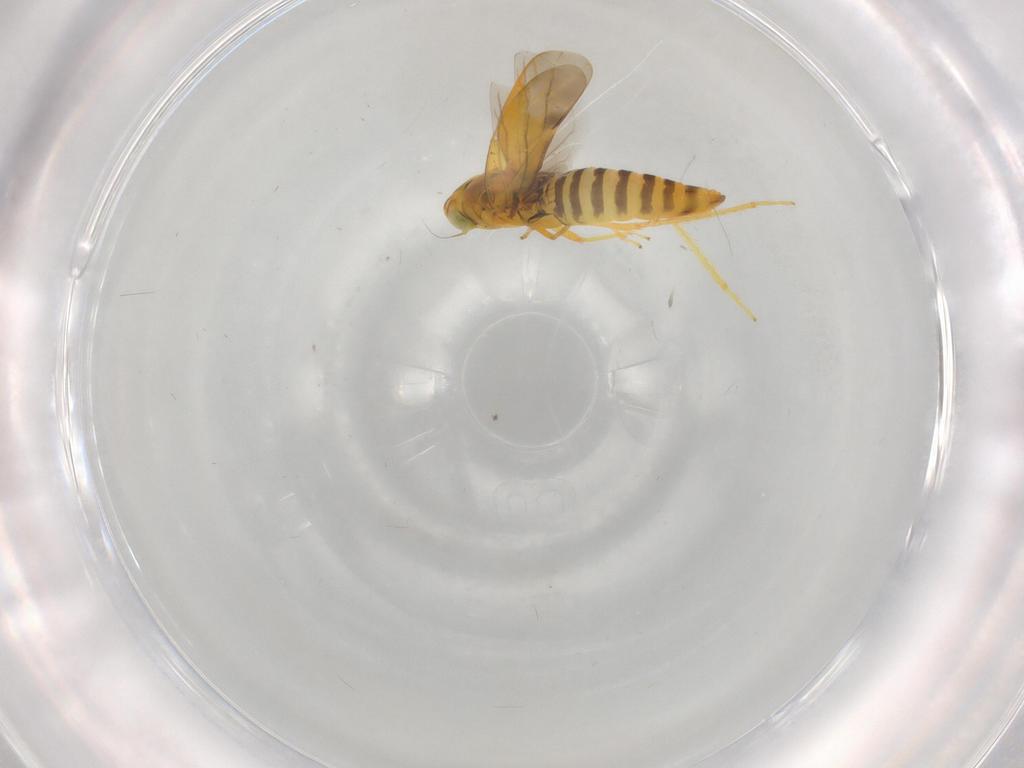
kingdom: Animalia
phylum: Arthropoda
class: Insecta
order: Hemiptera
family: Cicadellidae
